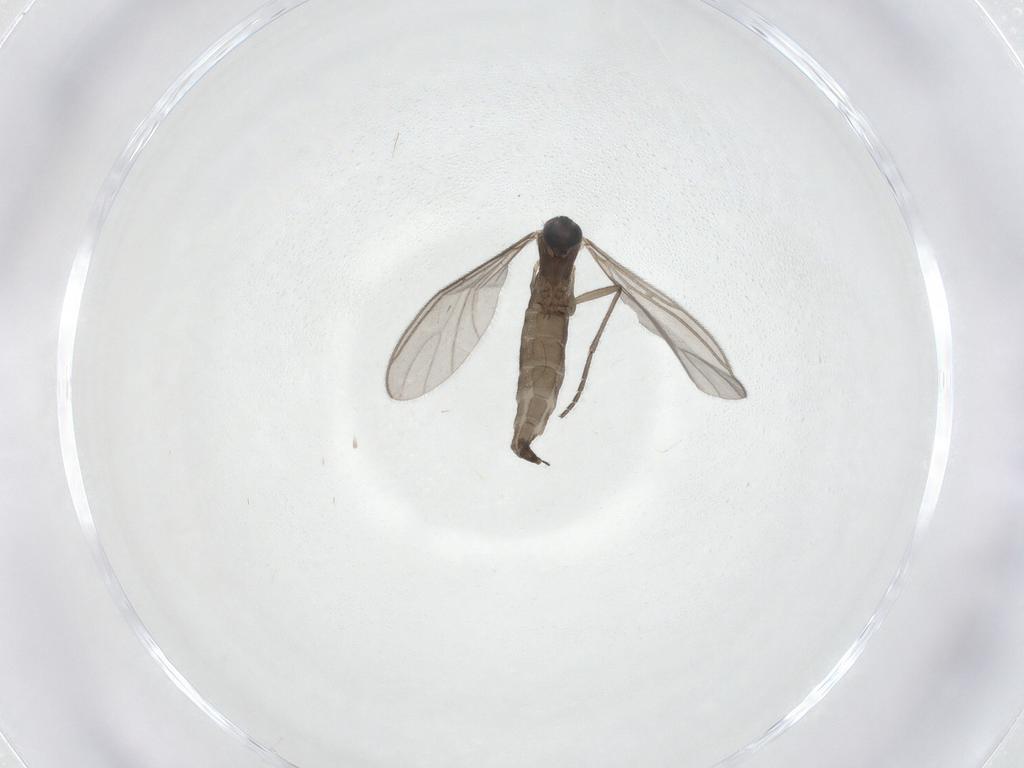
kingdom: Animalia
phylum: Arthropoda
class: Insecta
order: Diptera
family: Sciaridae
